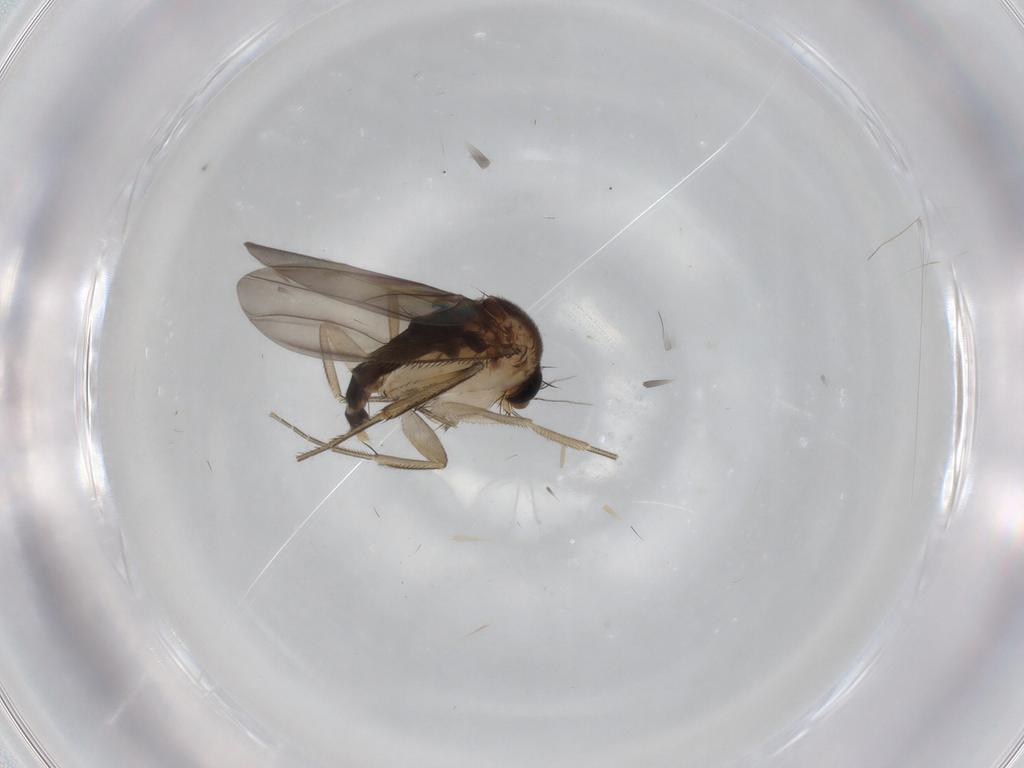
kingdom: Animalia
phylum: Arthropoda
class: Insecta
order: Diptera
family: Phoridae
